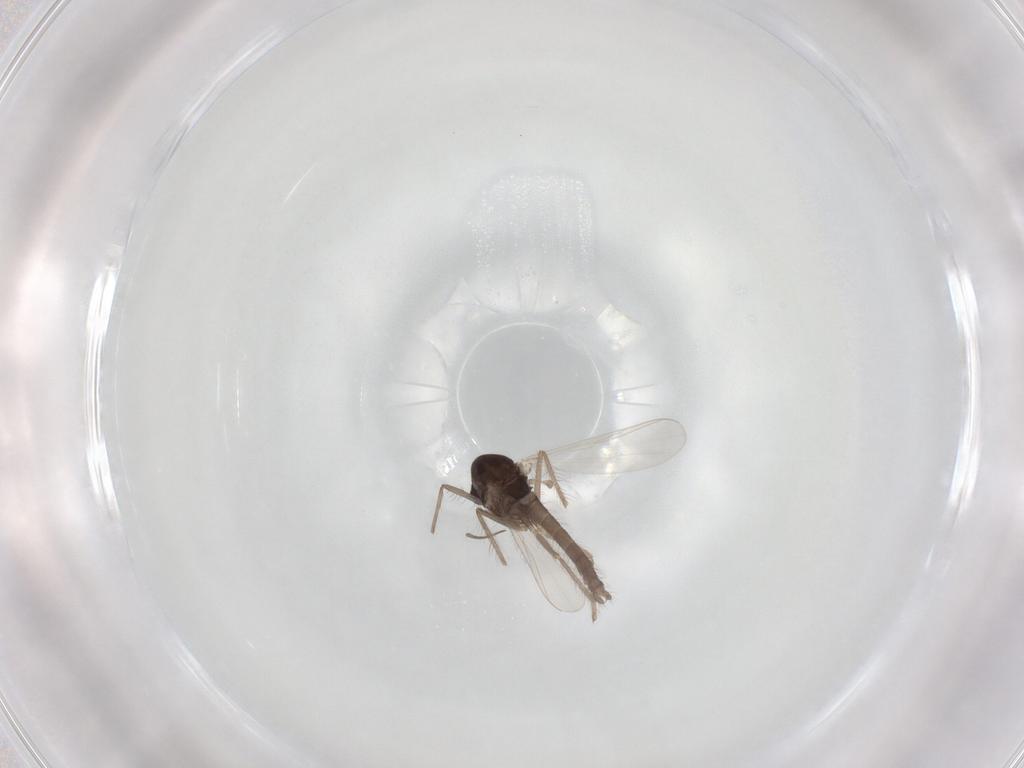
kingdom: Animalia
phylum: Arthropoda
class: Insecta
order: Diptera
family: Chironomidae
